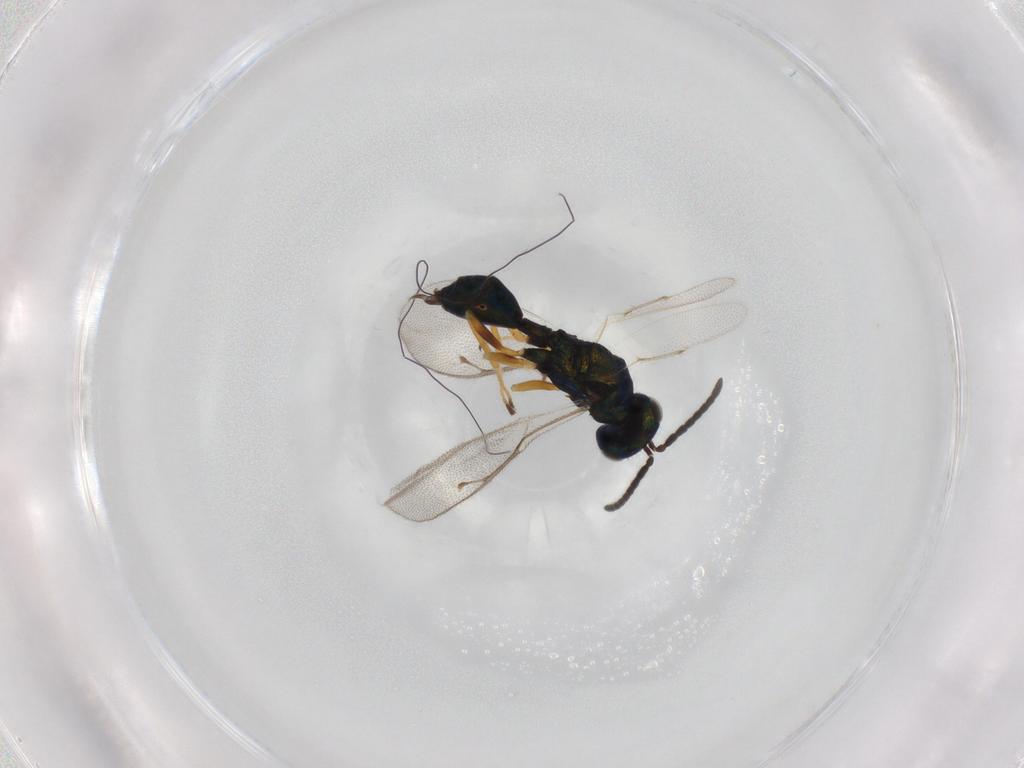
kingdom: Animalia
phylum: Arthropoda
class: Insecta
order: Hymenoptera
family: Pteromalidae
